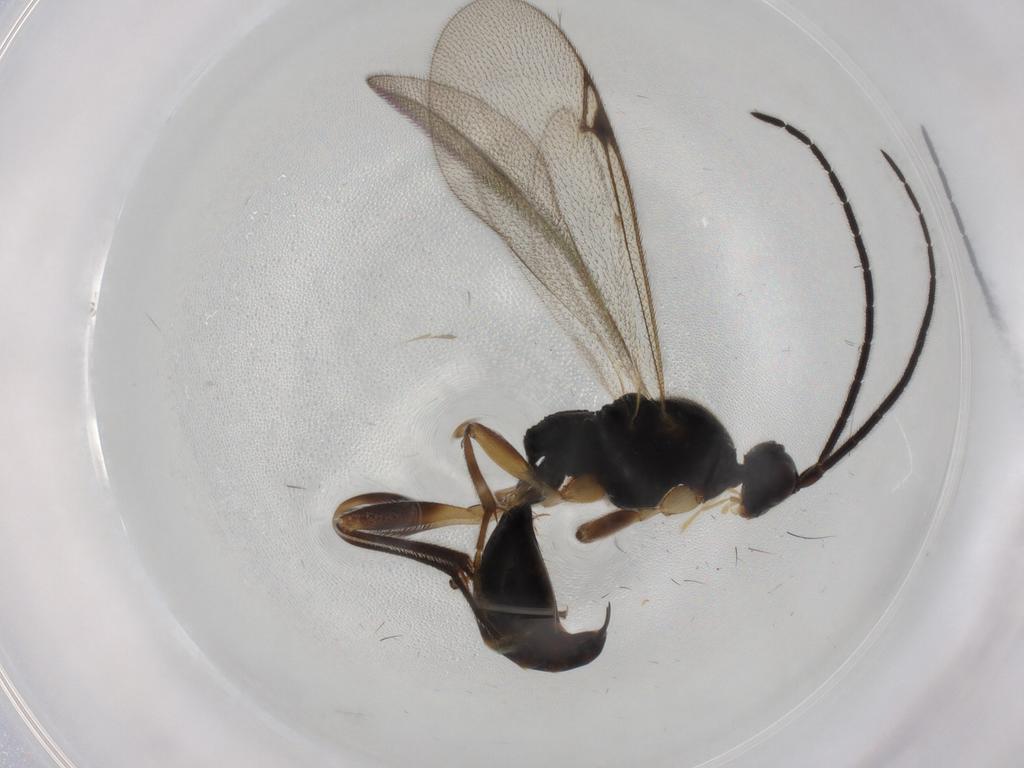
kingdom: Animalia
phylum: Arthropoda
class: Insecta
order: Hymenoptera
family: Proctotrupidae
